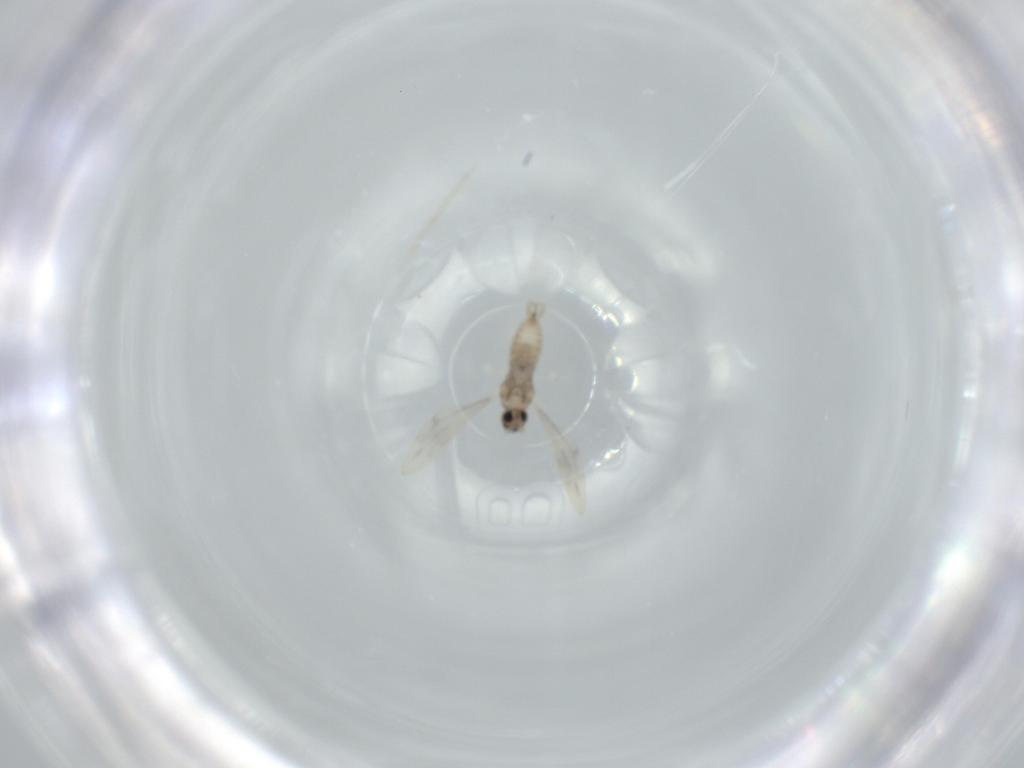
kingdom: Animalia
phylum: Arthropoda
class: Insecta
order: Diptera
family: Cecidomyiidae
